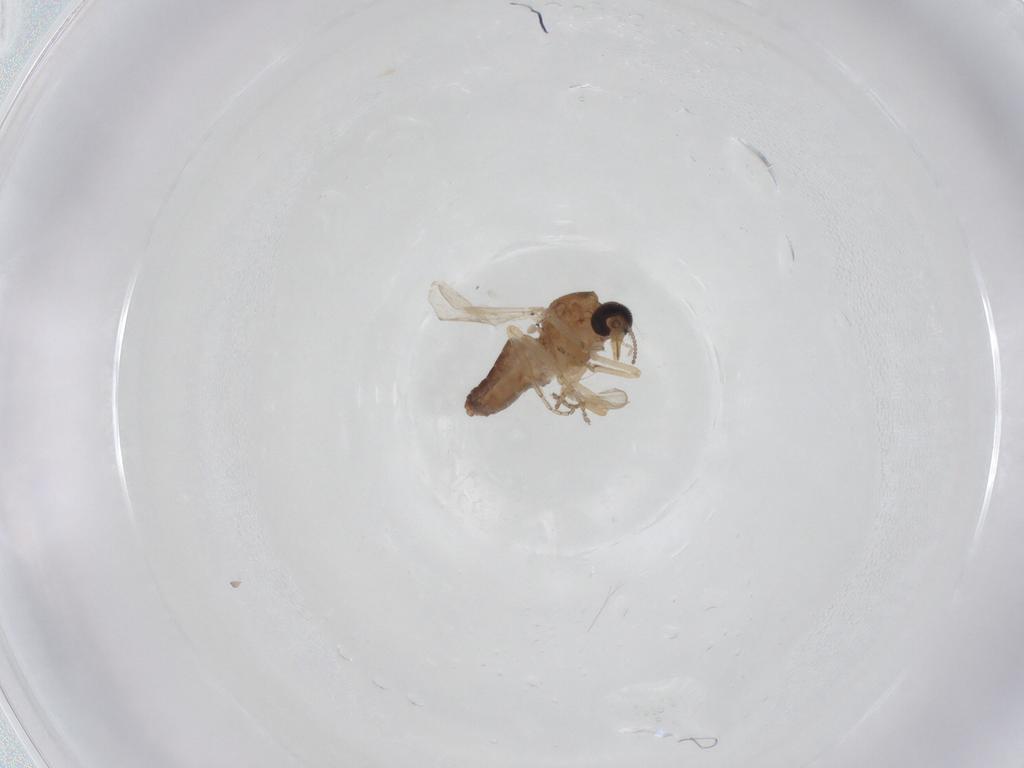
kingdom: Animalia
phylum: Arthropoda
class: Insecta
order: Diptera
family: Ceratopogonidae
